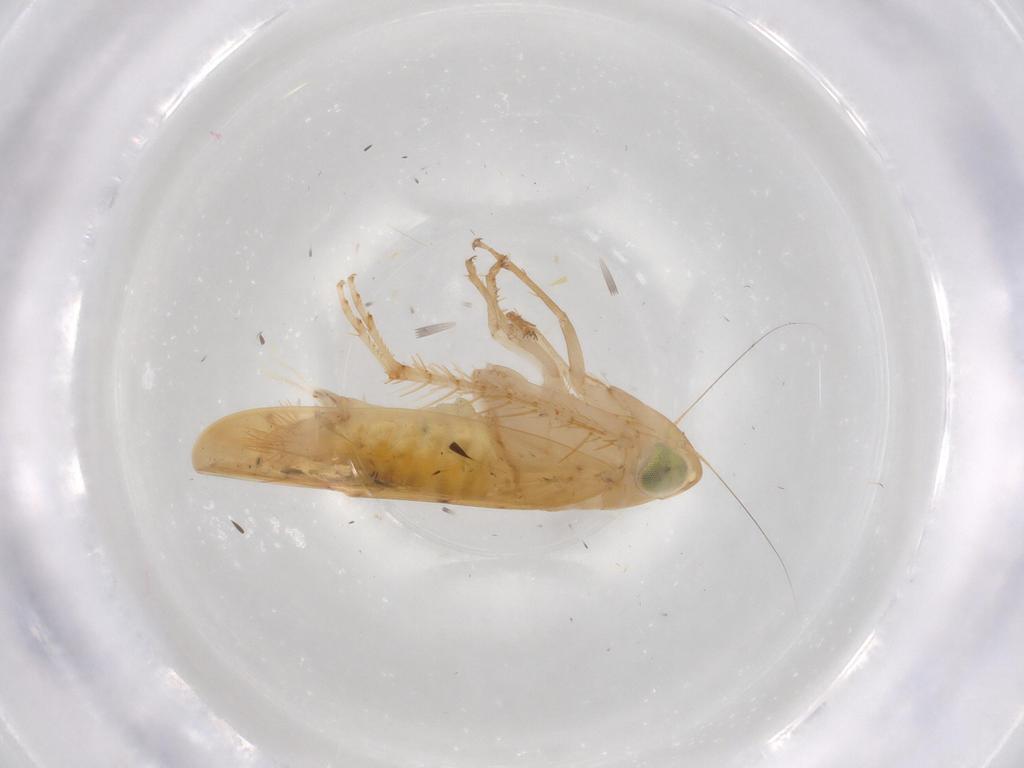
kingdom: Animalia
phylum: Arthropoda
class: Insecta
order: Hemiptera
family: Cicadellidae
